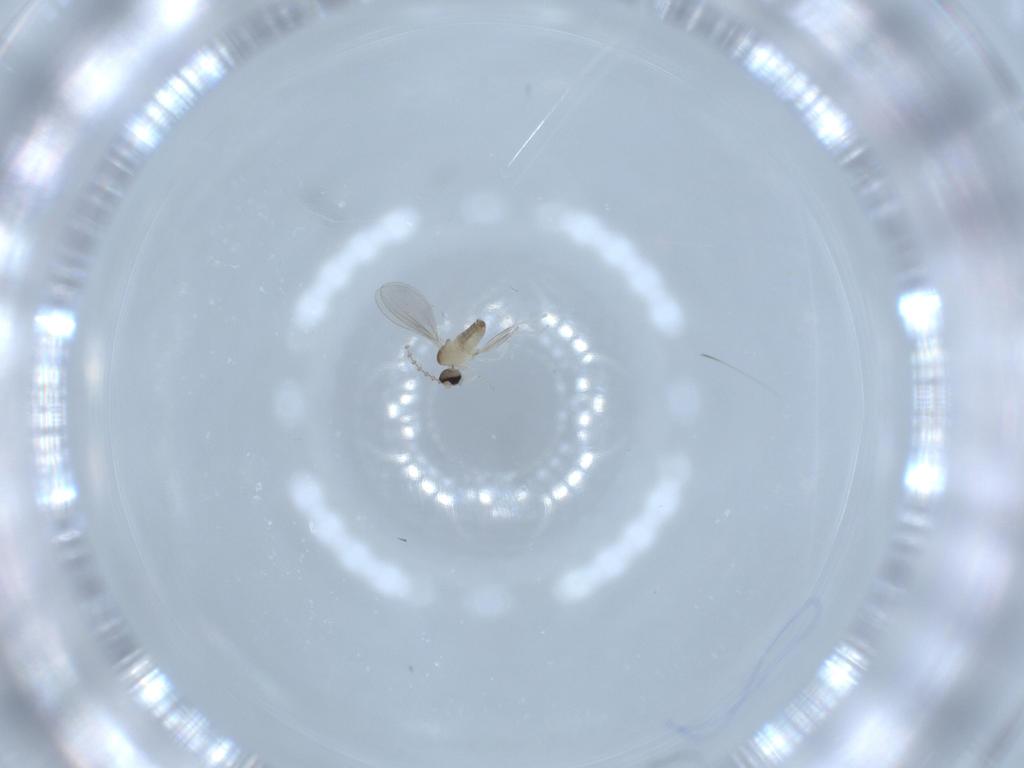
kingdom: Animalia
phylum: Arthropoda
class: Insecta
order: Diptera
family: Cecidomyiidae
